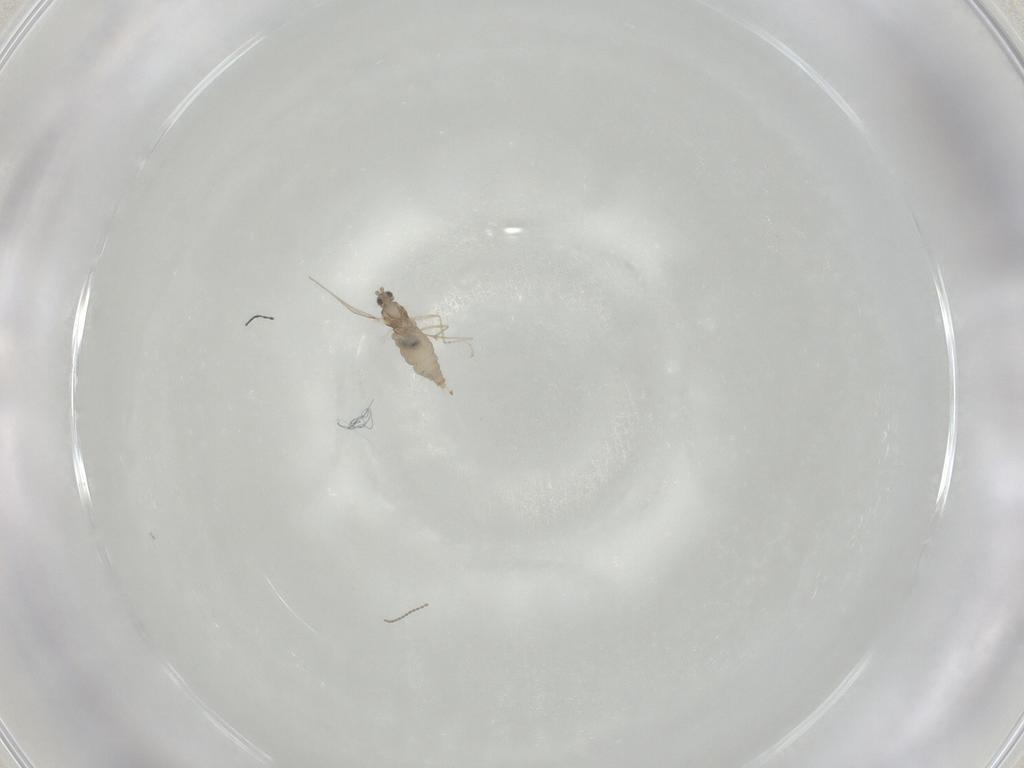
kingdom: Animalia
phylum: Arthropoda
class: Insecta
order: Diptera
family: Cecidomyiidae
